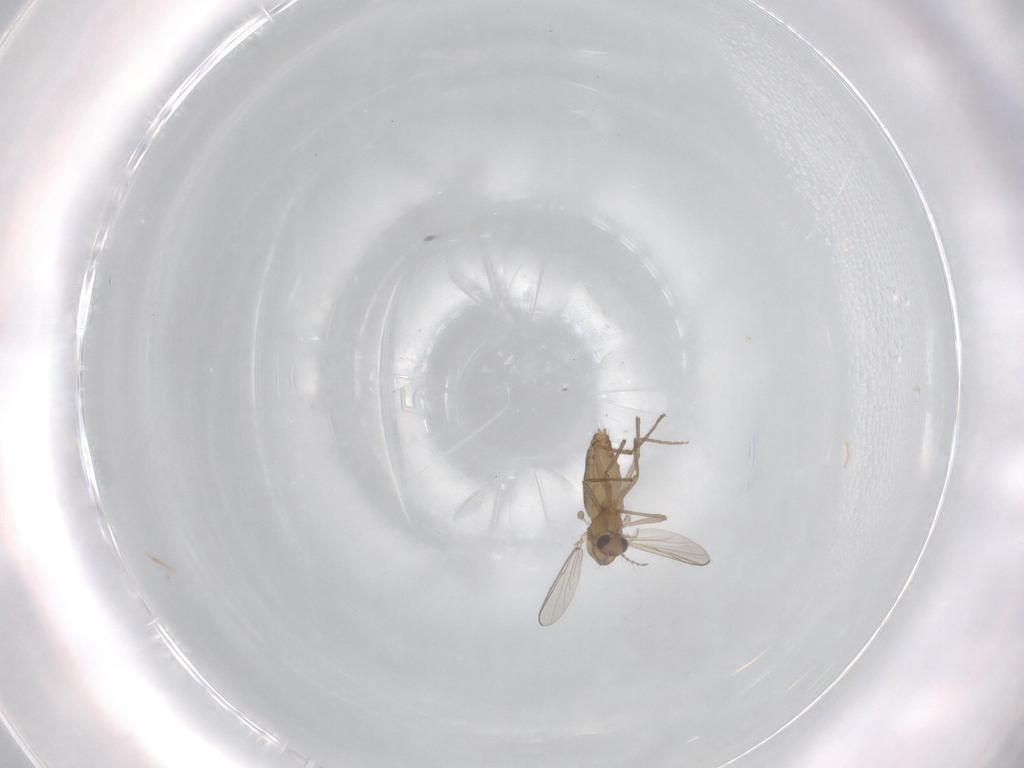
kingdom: Animalia
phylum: Arthropoda
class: Insecta
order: Diptera
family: Chironomidae
